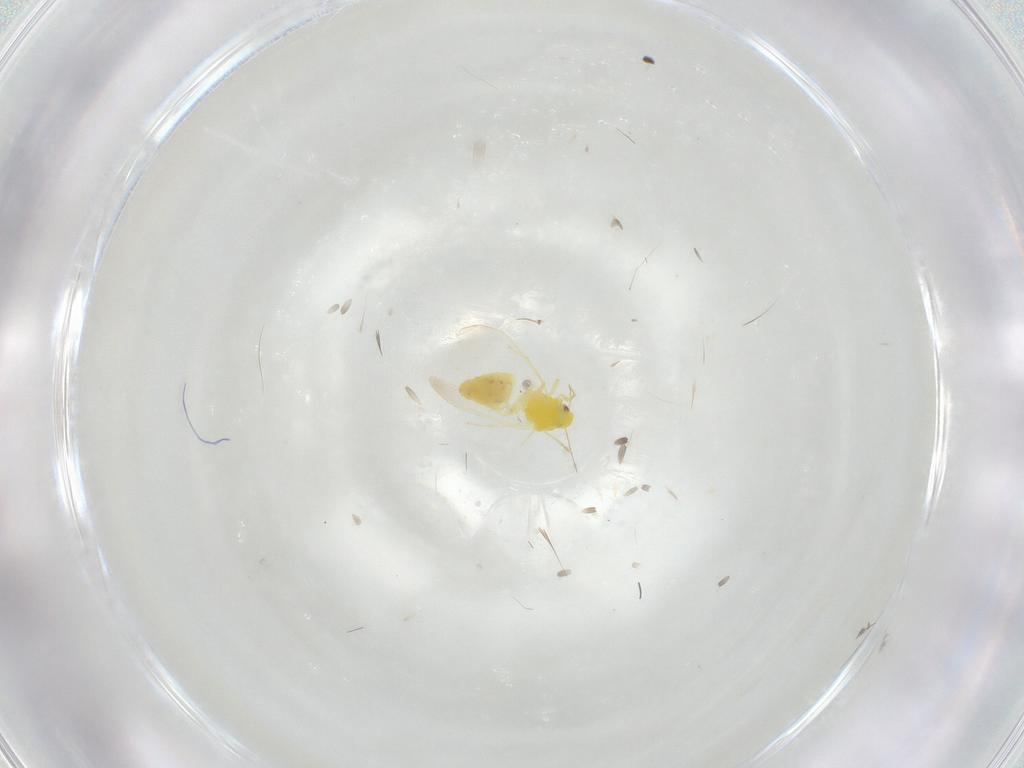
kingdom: Animalia
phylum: Arthropoda
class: Insecta
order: Hemiptera
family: Aleyrodidae
